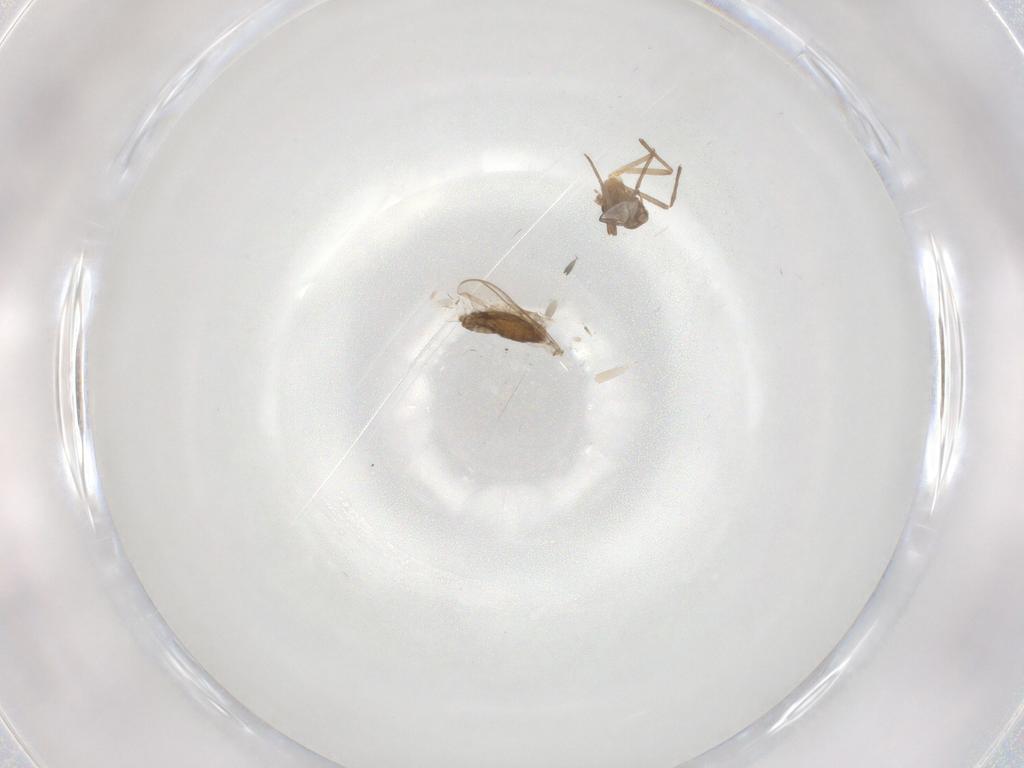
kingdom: Animalia
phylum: Arthropoda
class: Insecta
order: Diptera
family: Chironomidae
